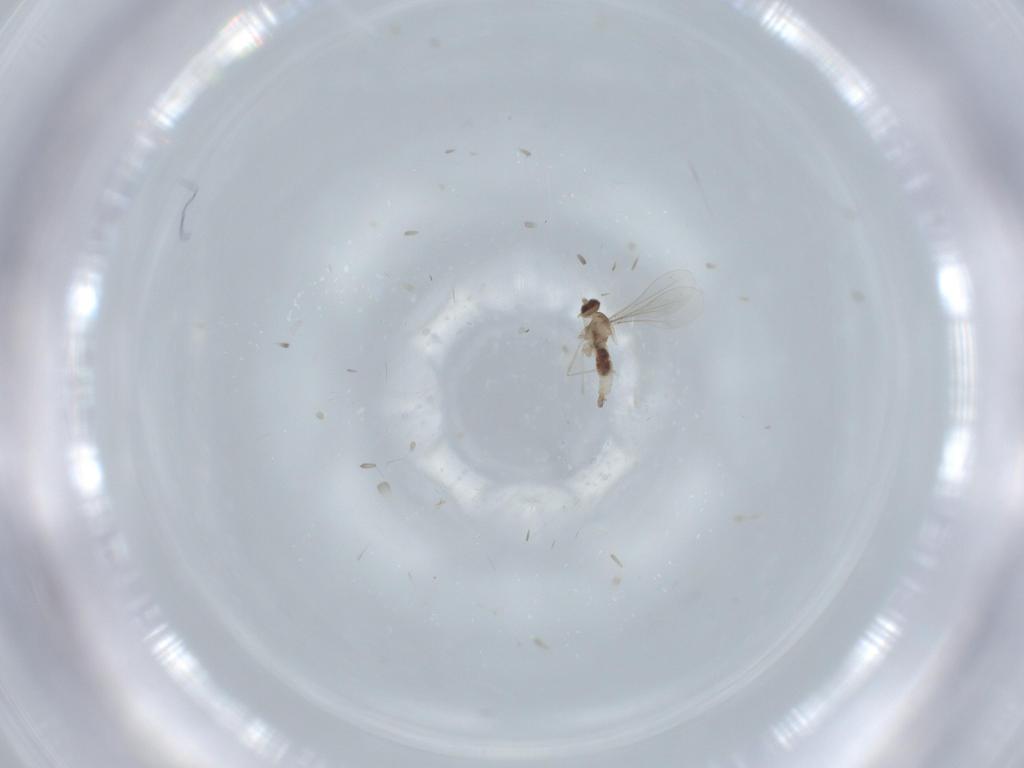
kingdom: Animalia
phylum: Arthropoda
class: Insecta
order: Diptera
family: Cecidomyiidae
